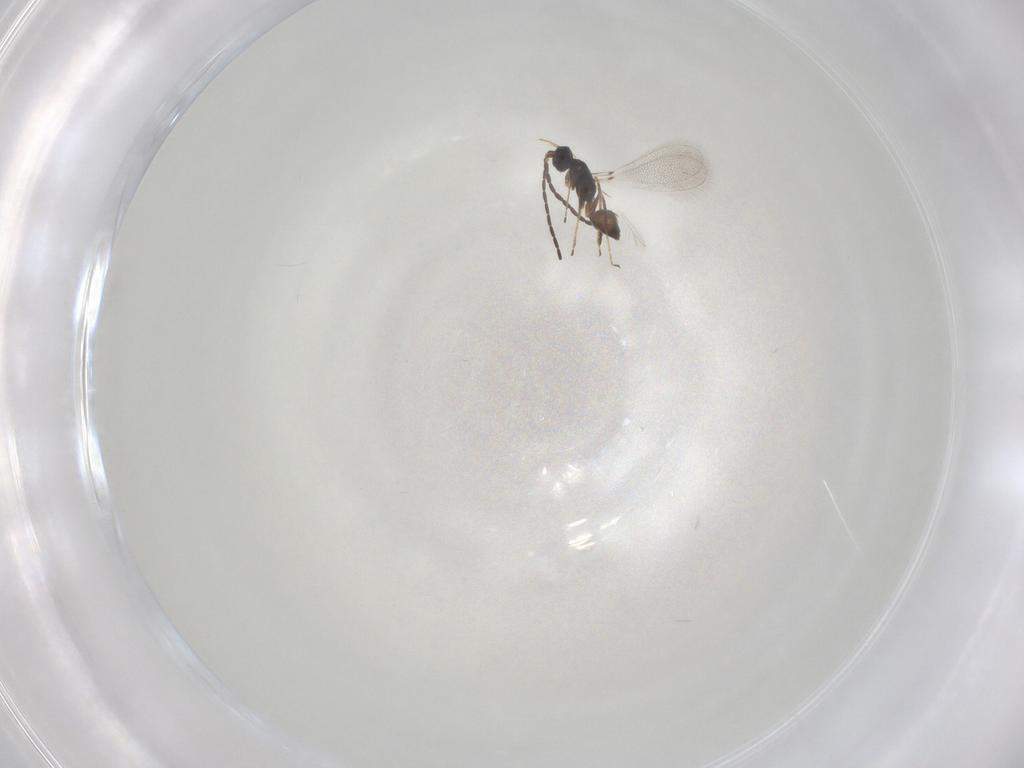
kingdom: Animalia
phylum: Arthropoda
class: Insecta
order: Hymenoptera
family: Mymaridae
